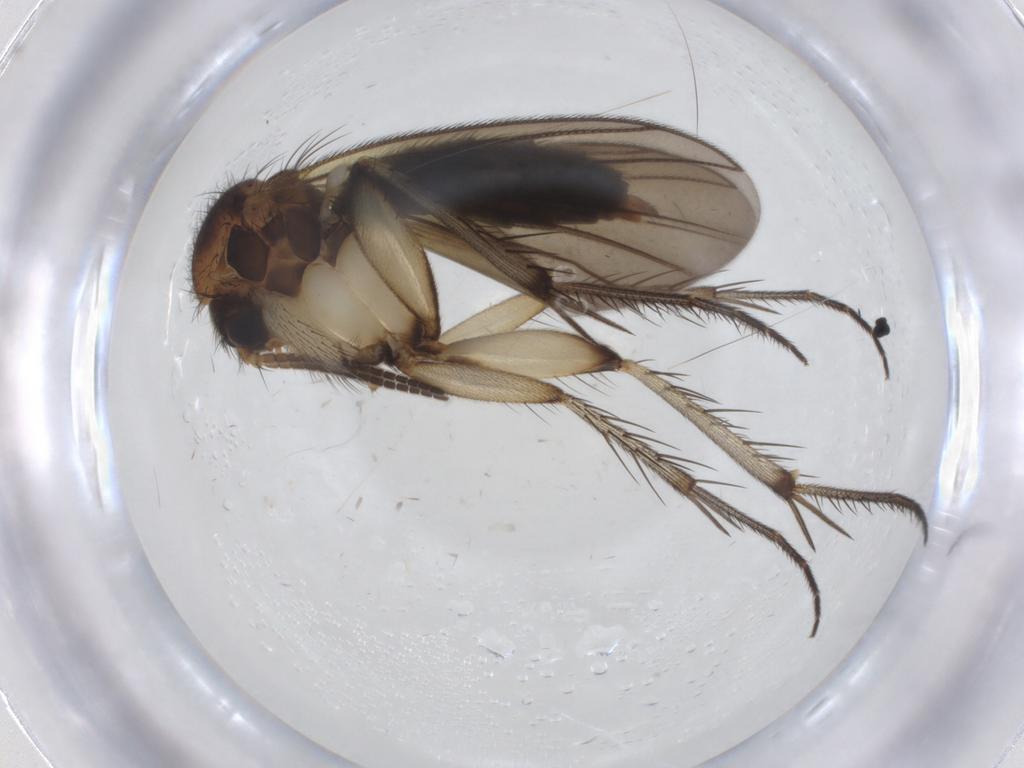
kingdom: Animalia
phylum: Arthropoda
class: Insecta
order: Diptera
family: Mycetophilidae
